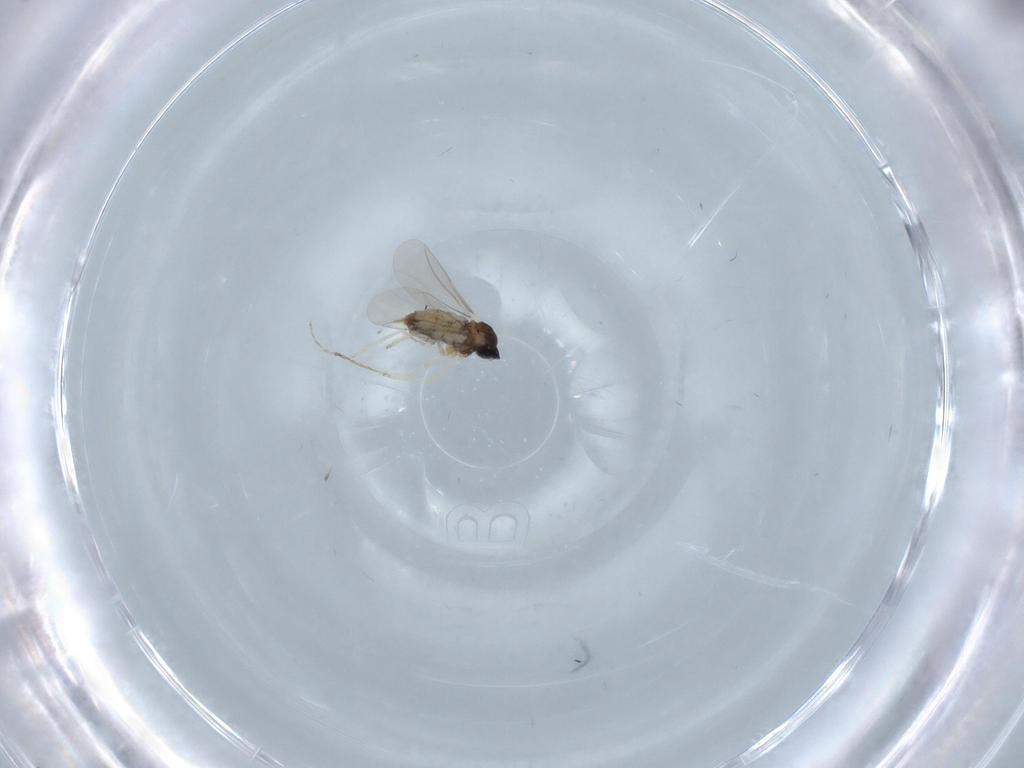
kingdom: Animalia
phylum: Arthropoda
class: Insecta
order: Diptera
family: Cecidomyiidae
